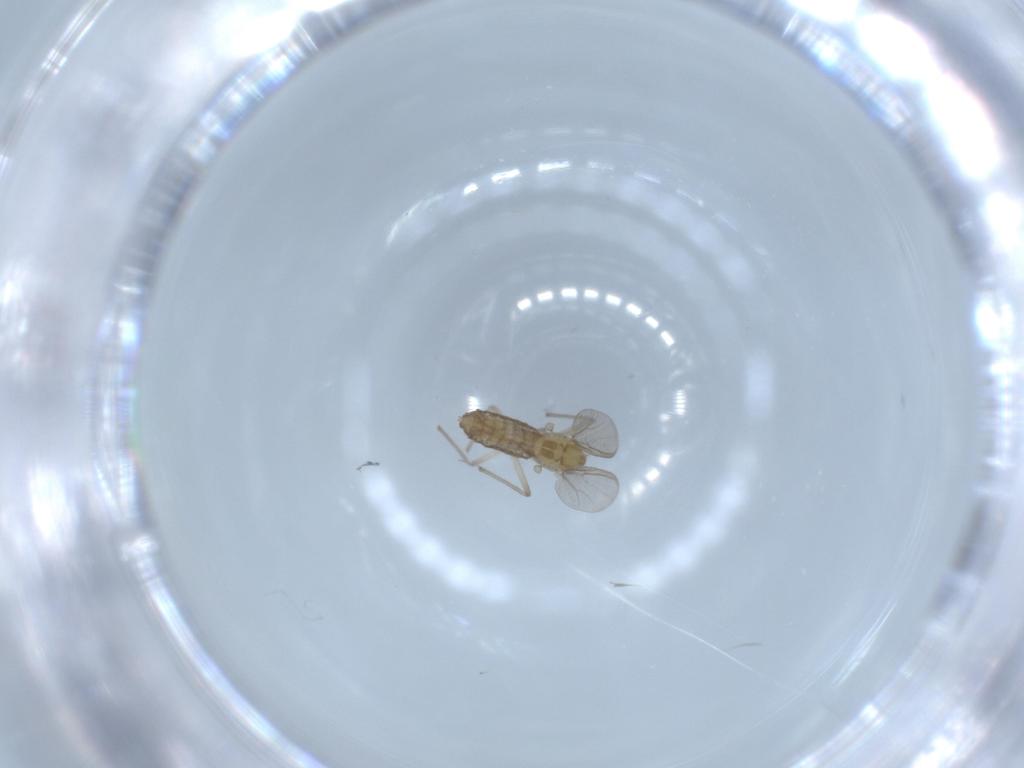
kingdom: Animalia
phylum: Arthropoda
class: Insecta
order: Diptera
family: Chironomidae
